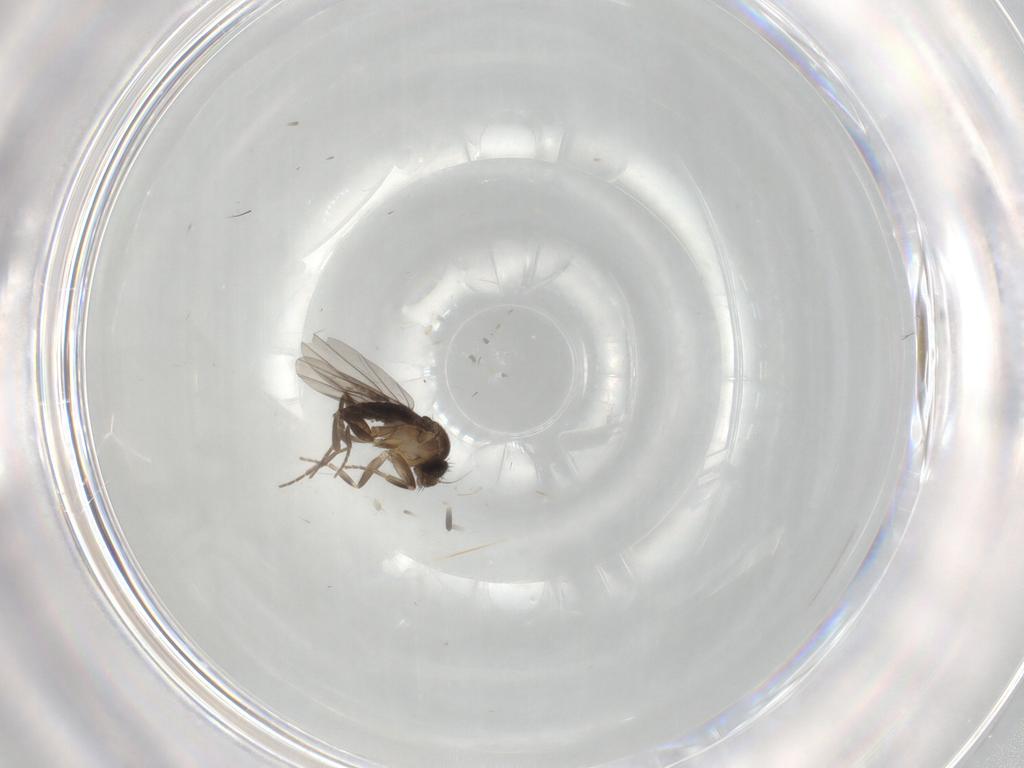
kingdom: Animalia
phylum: Arthropoda
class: Insecta
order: Diptera
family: Phoridae
